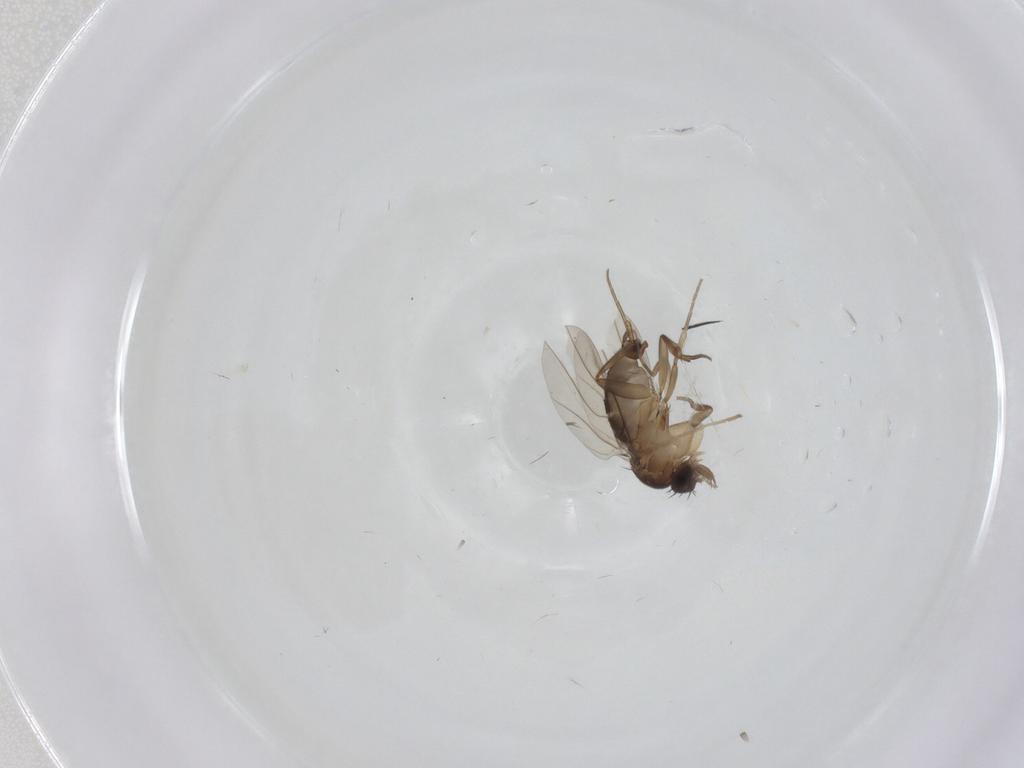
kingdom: Animalia
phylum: Arthropoda
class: Insecta
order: Diptera
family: Phoridae
